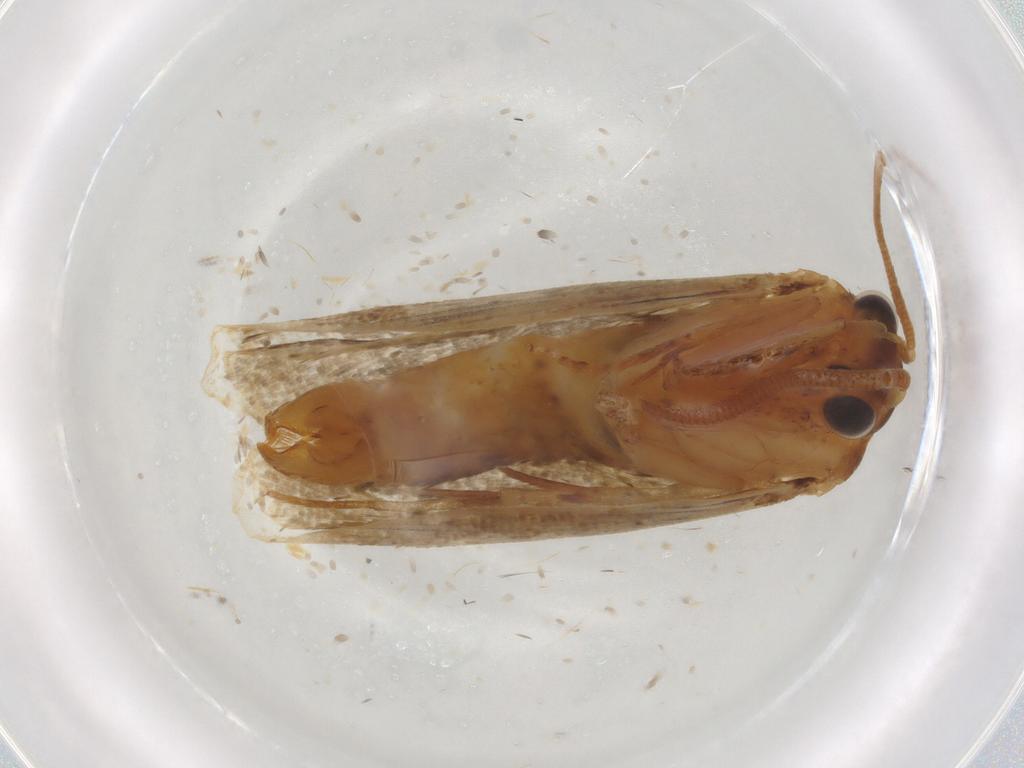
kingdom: Animalia
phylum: Arthropoda
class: Insecta
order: Lepidoptera
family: Tineidae
